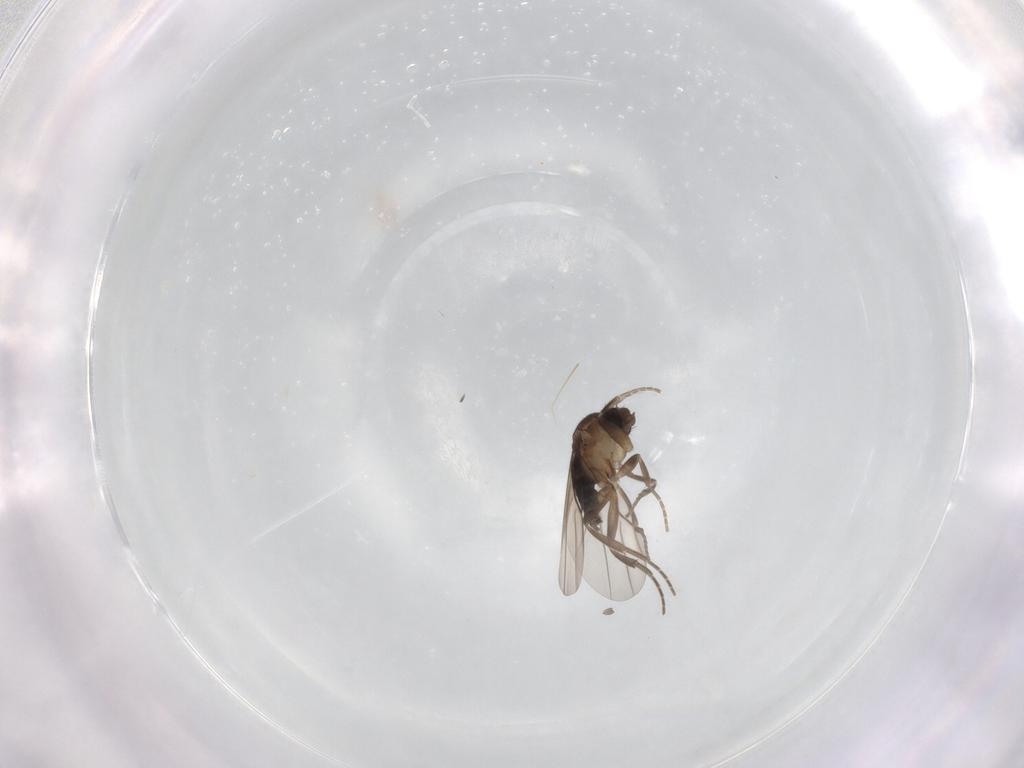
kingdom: Animalia
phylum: Arthropoda
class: Insecta
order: Diptera
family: Phoridae
